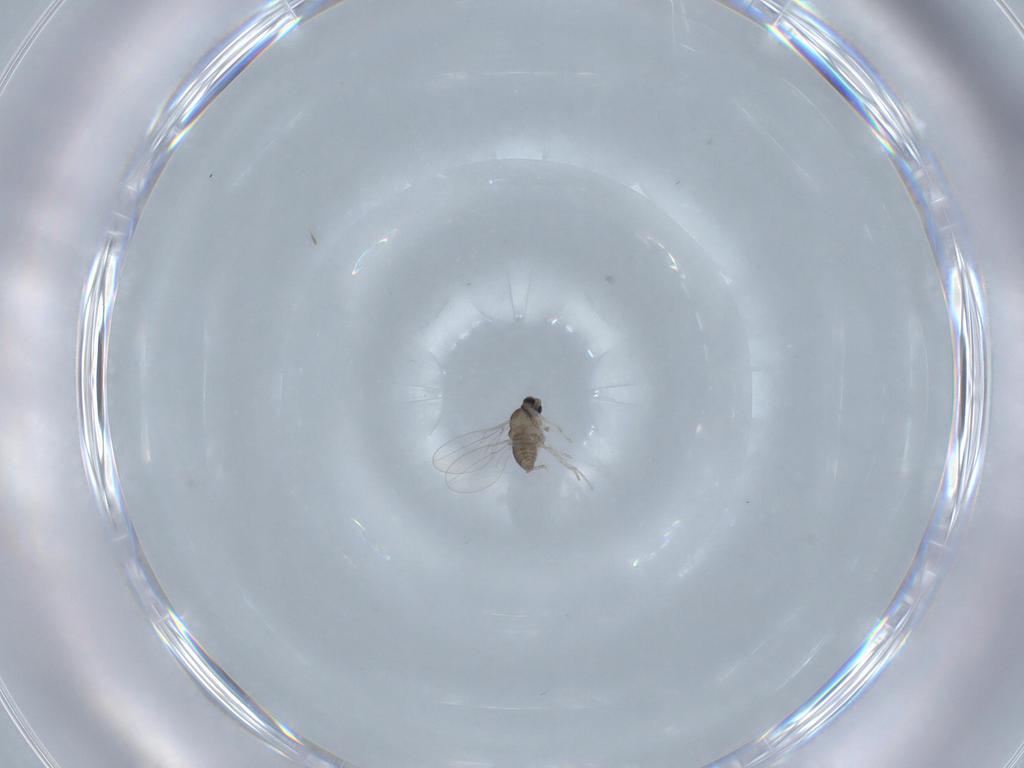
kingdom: Animalia
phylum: Arthropoda
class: Insecta
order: Diptera
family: Cecidomyiidae
